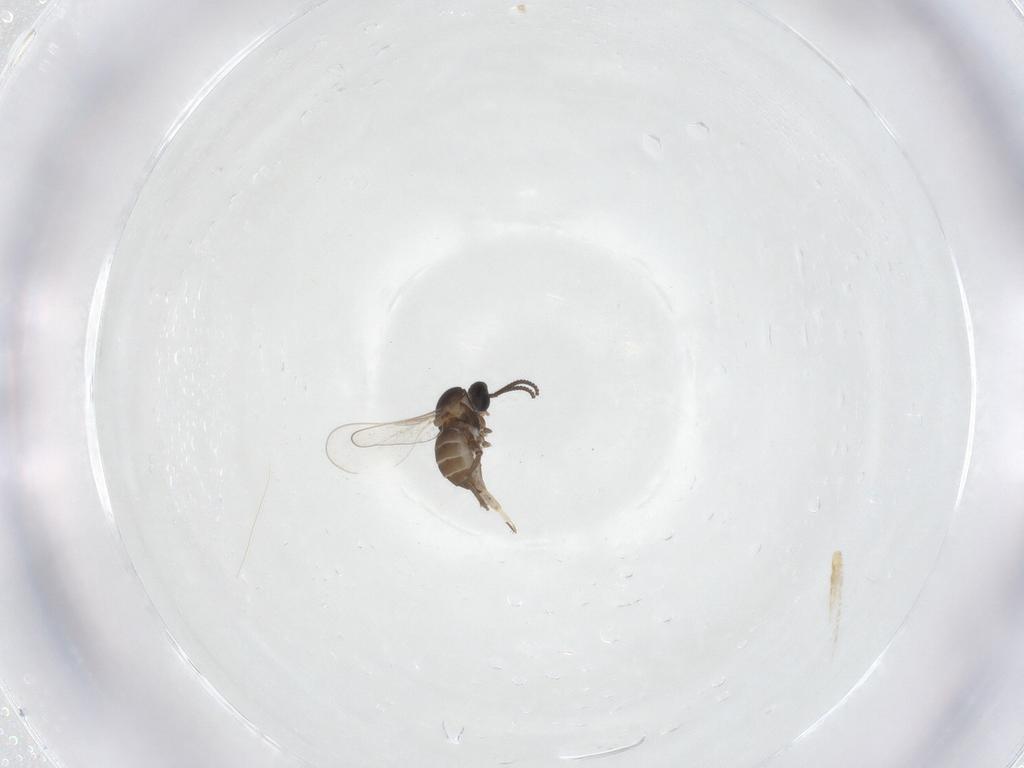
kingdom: Animalia
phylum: Arthropoda
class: Insecta
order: Diptera
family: Cecidomyiidae
